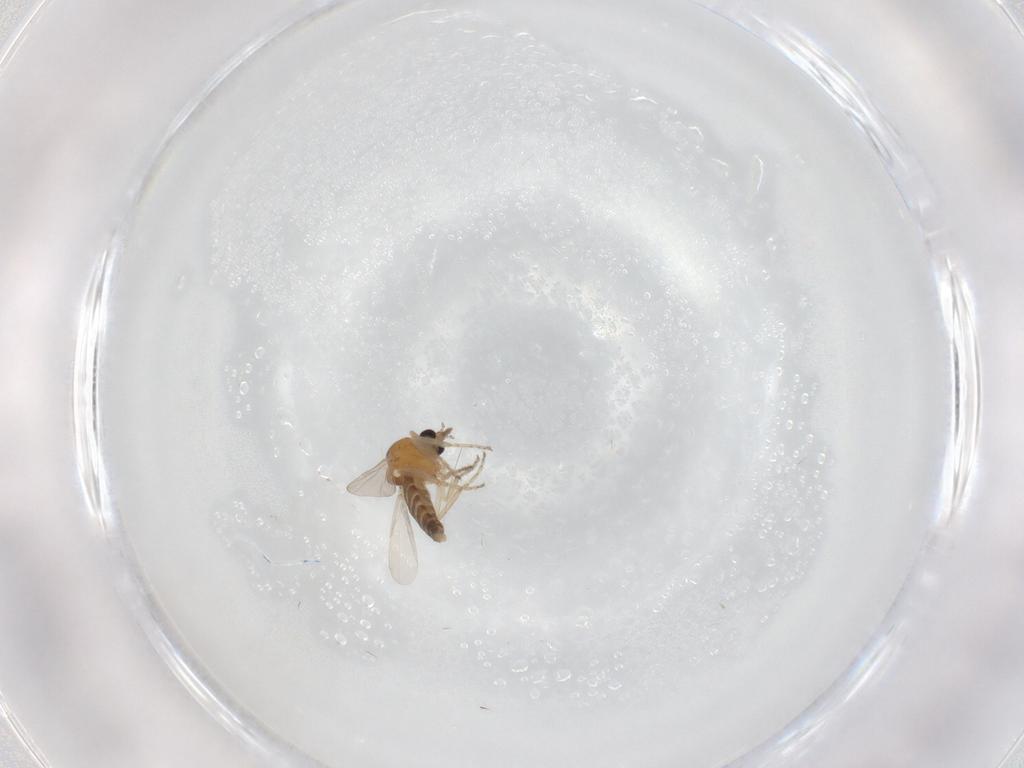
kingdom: Animalia
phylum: Arthropoda
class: Insecta
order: Diptera
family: Ceratopogonidae
